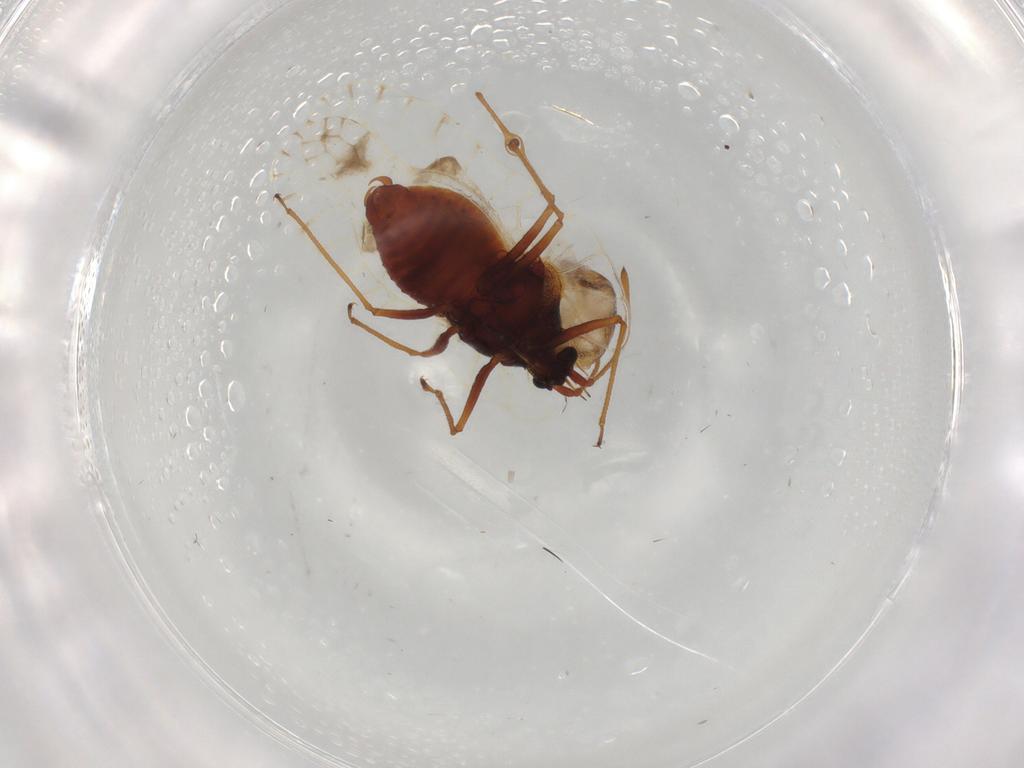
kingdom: Animalia
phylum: Arthropoda
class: Insecta
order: Hemiptera
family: Tingidae
